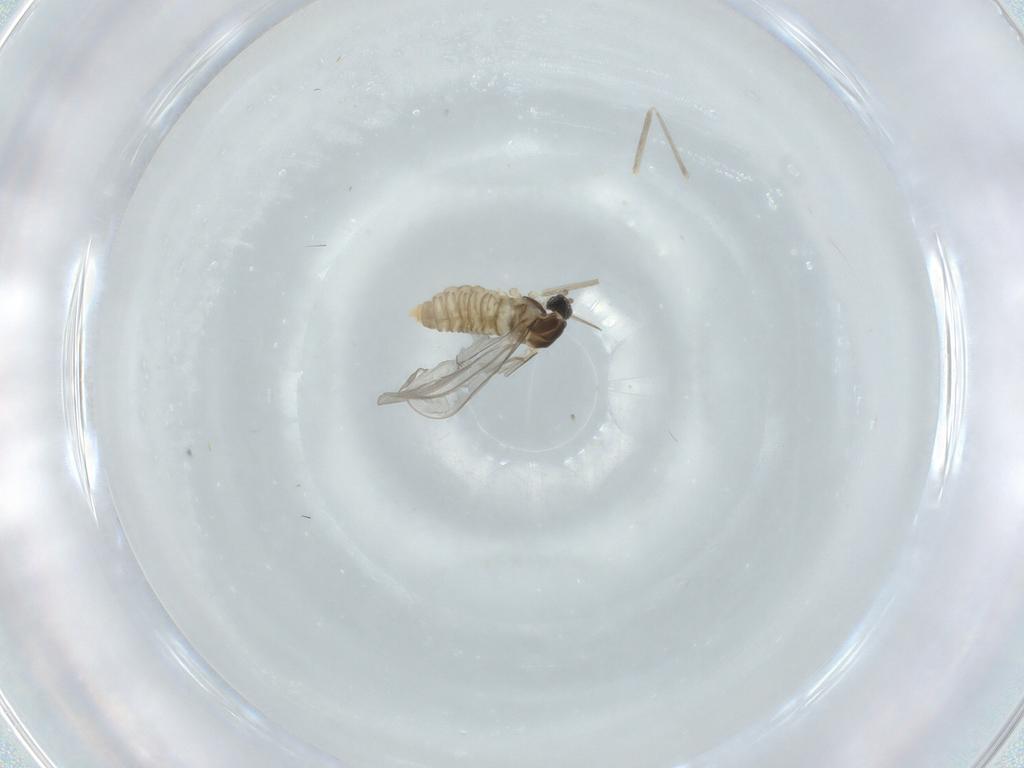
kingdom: Animalia
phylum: Arthropoda
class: Insecta
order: Diptera
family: Cecidomyiidae
